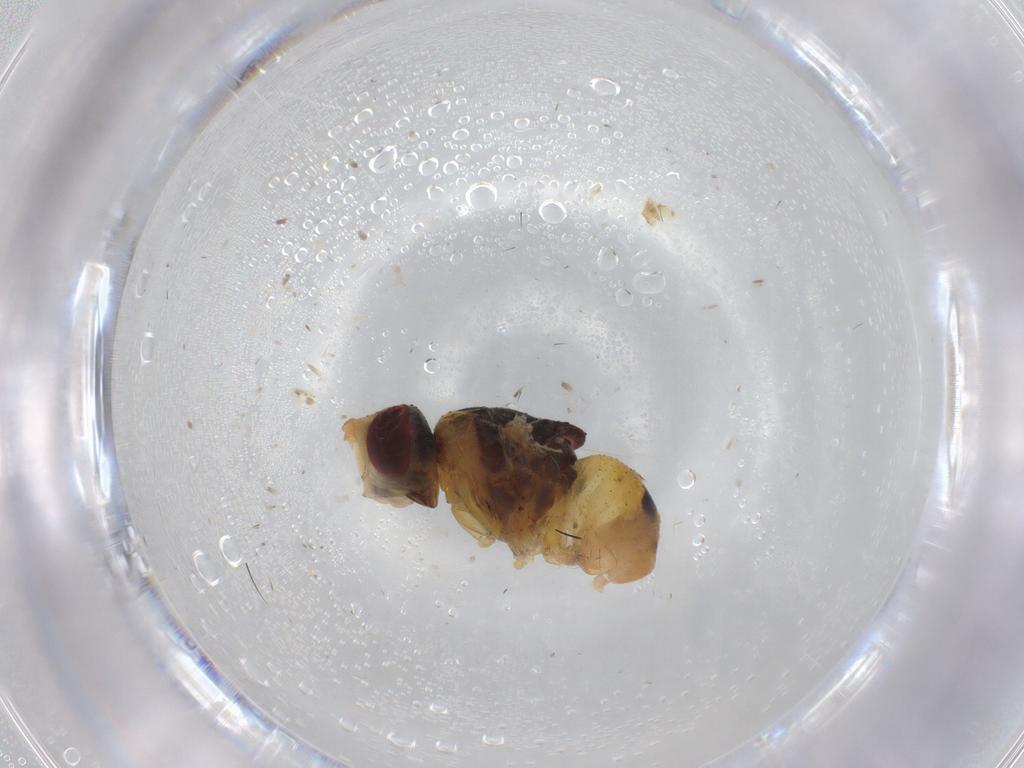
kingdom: Animalia
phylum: Arthropoda
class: Insecta
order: Diptera
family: Muscidae
